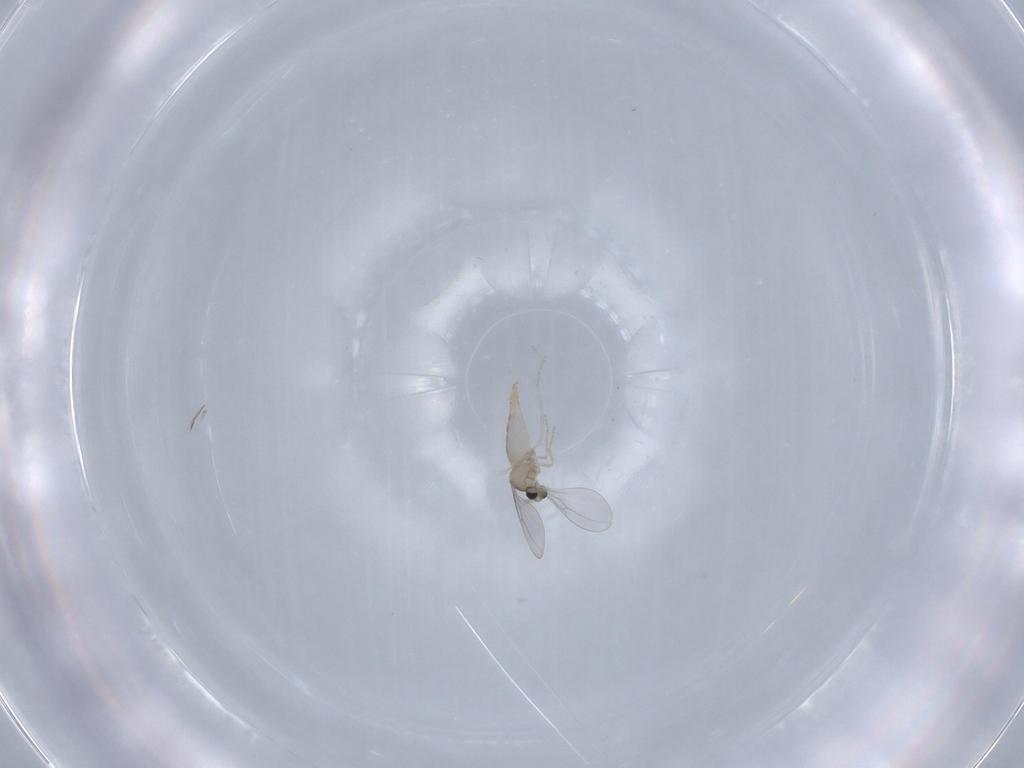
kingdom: Animalia
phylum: Arthropoda
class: Insecta
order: Diptera
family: Cecidomyiidae
